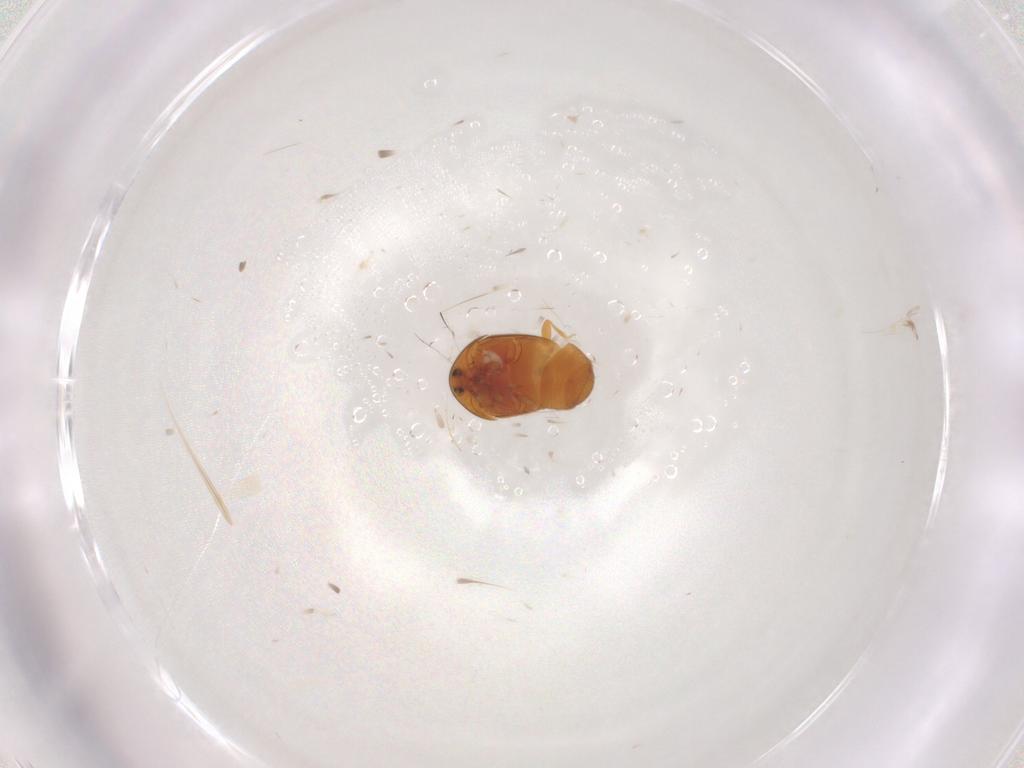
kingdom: Animalia
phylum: Arthropoda
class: Insecta
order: Coleoptera
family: Corylophidae
